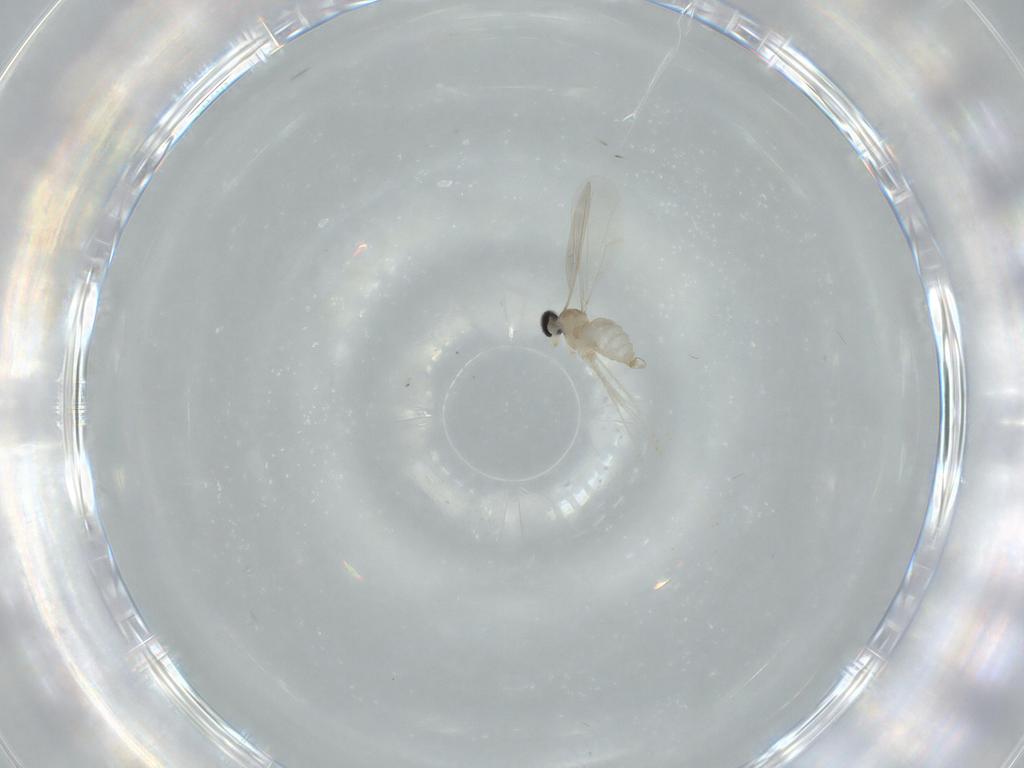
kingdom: Animalia
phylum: Arthropoda
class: Insecta
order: Diptera
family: Cecidomyiidae
